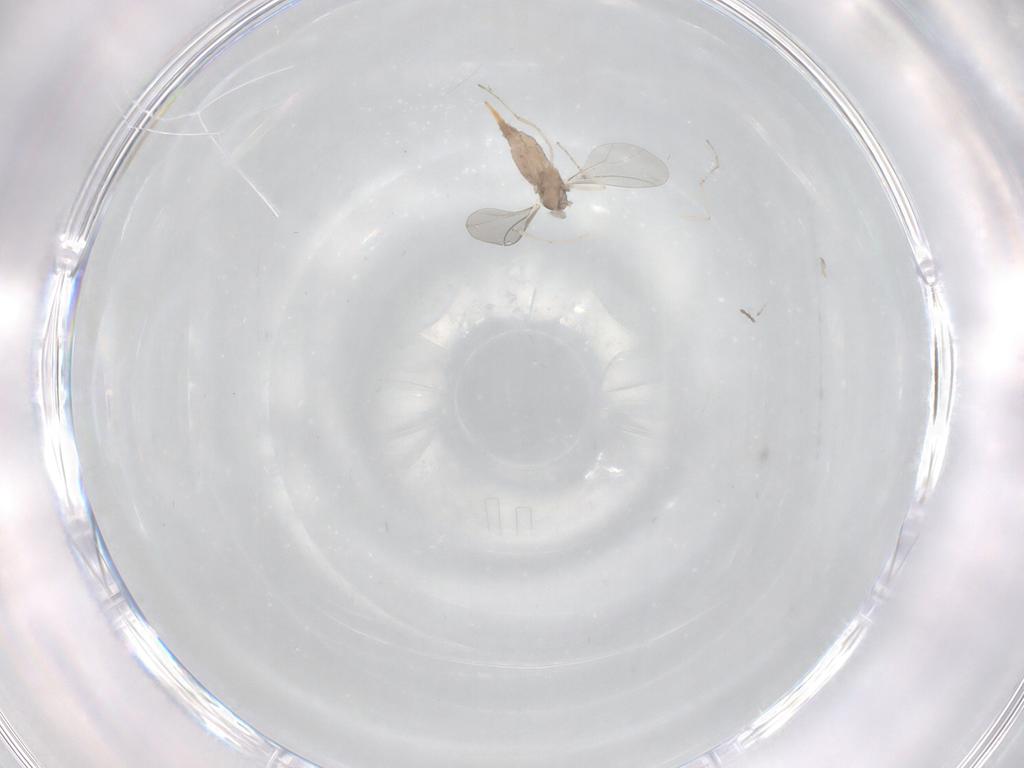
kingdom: Animalia
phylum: Arthropoda
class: Insecta
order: Diptera
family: Cecidomyiidae
